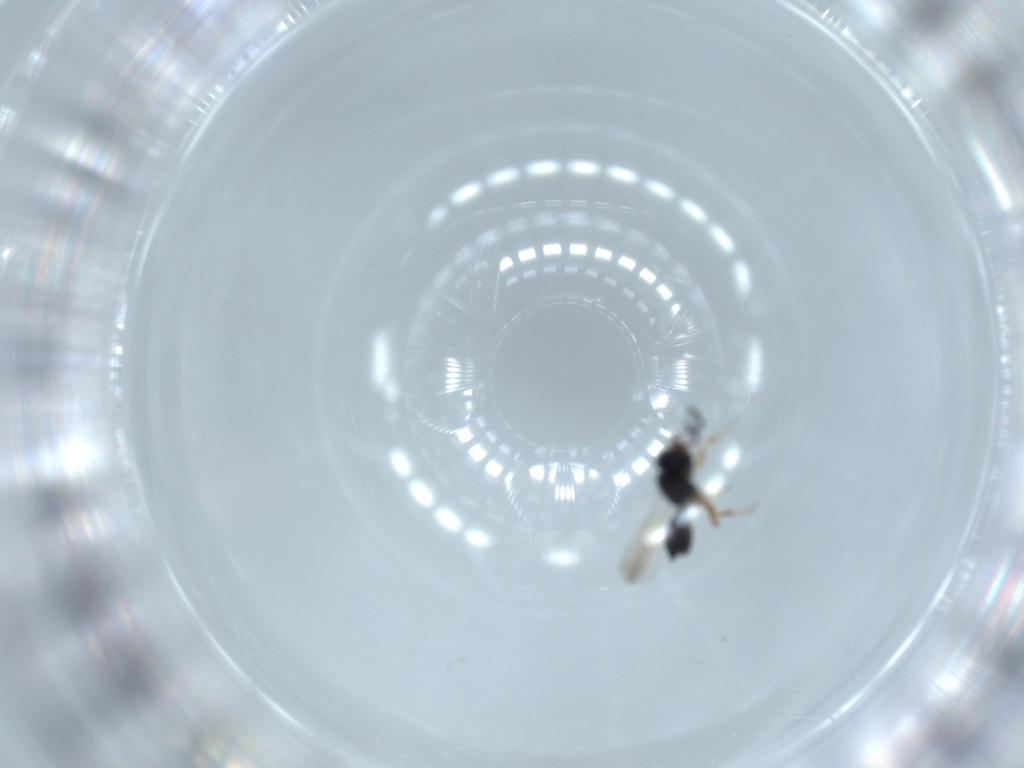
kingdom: Animalia
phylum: Arthropoda
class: Insecta
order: Hymenoptera
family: Scelionidae
